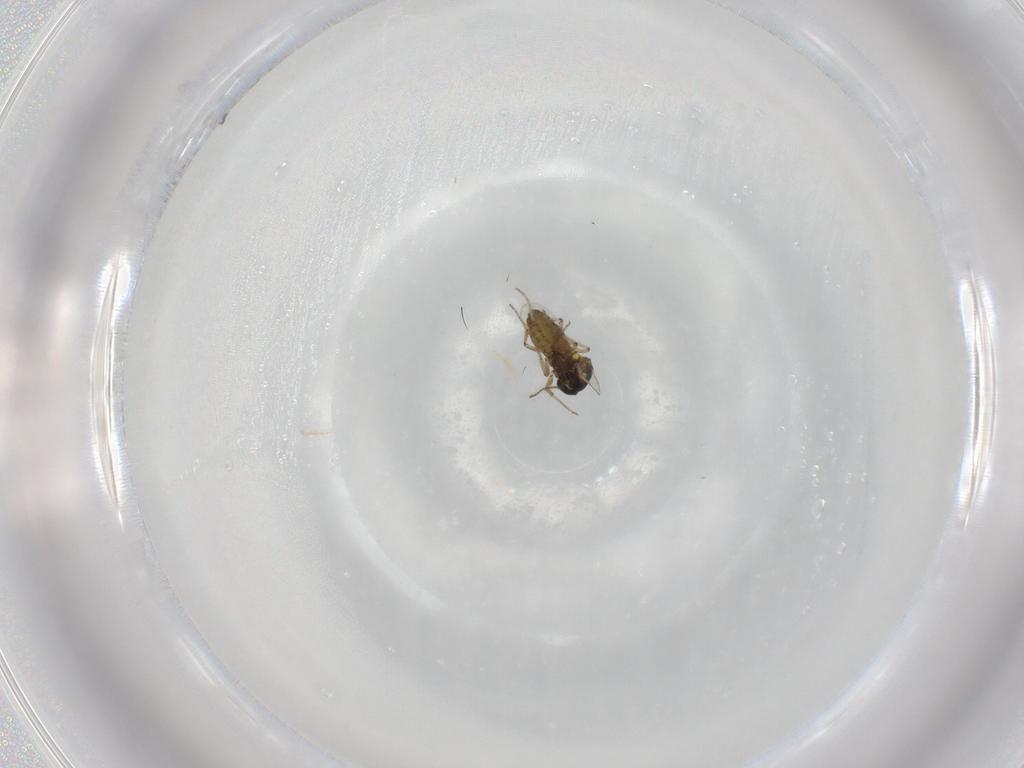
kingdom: Animalia
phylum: Arthropoda
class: Insecta
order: Diptera
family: Ceratopogonidae
